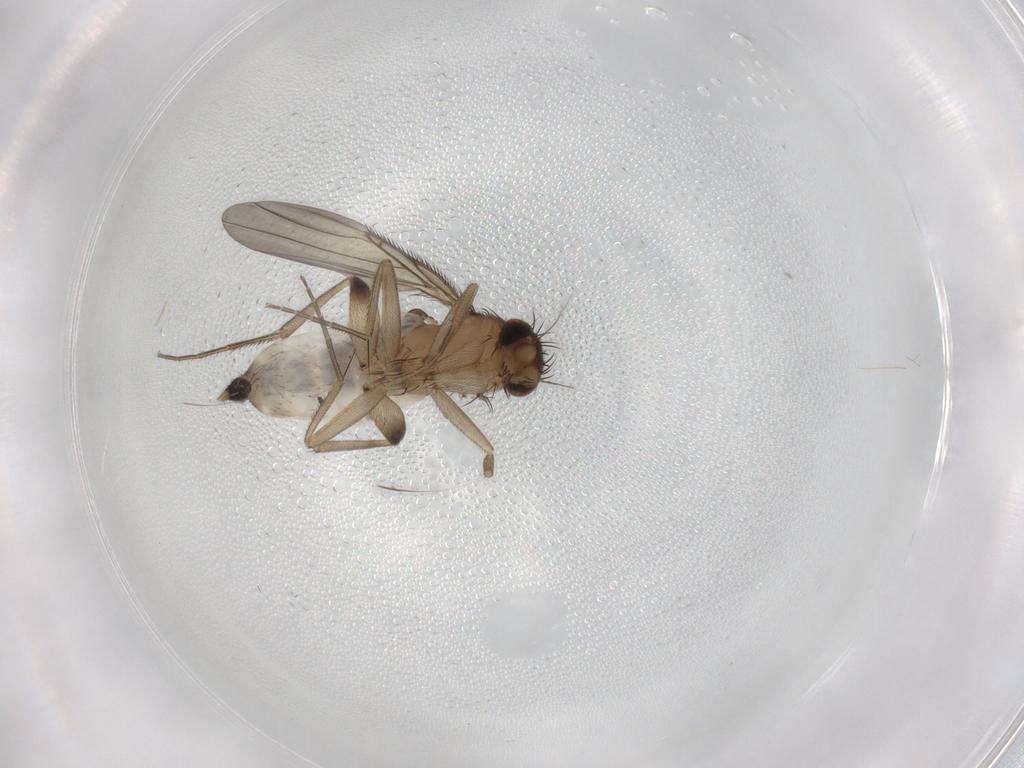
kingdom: Animalia
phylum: Arthropoda
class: Insecta
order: Diptera
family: Phoridae
